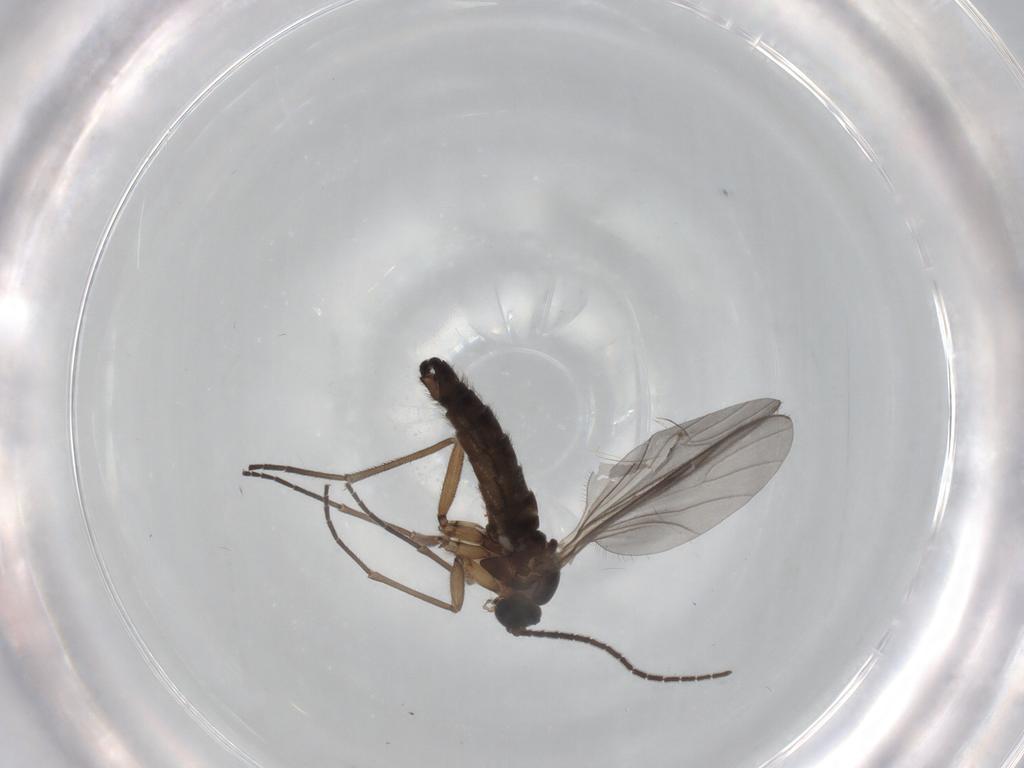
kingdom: Animalia
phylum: Arthropoda
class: Insecta
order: Diptera
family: Sciaridae
